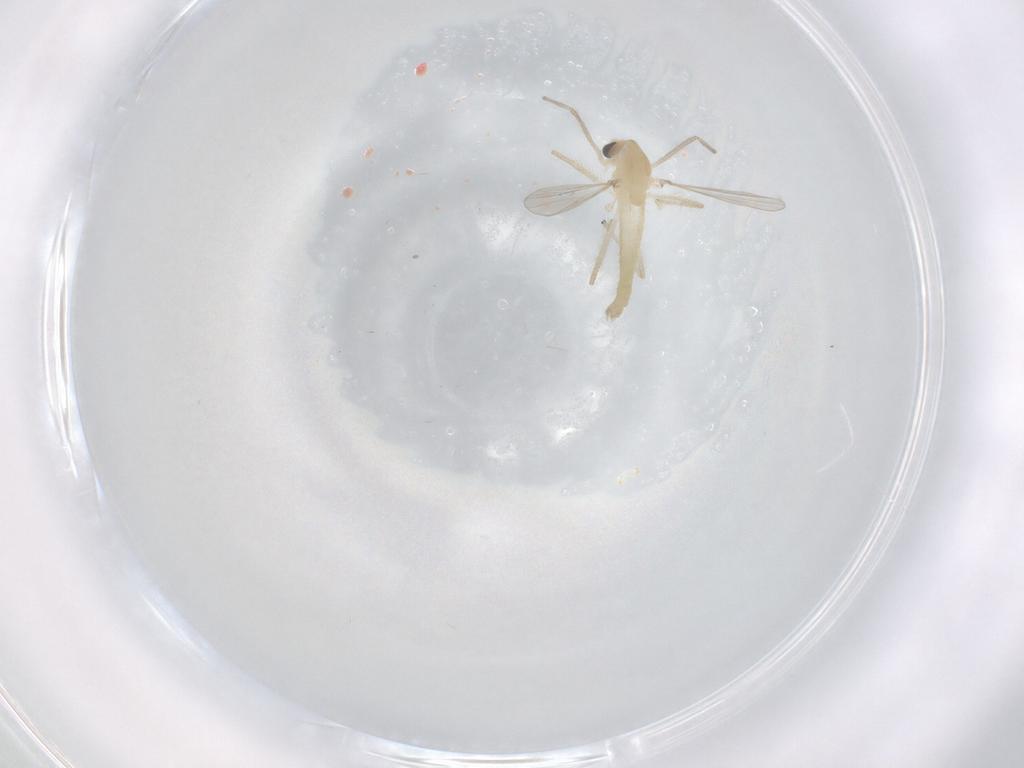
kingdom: Animalia
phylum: Arthropoda
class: Insecta
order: Diptera
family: Chironomidae
